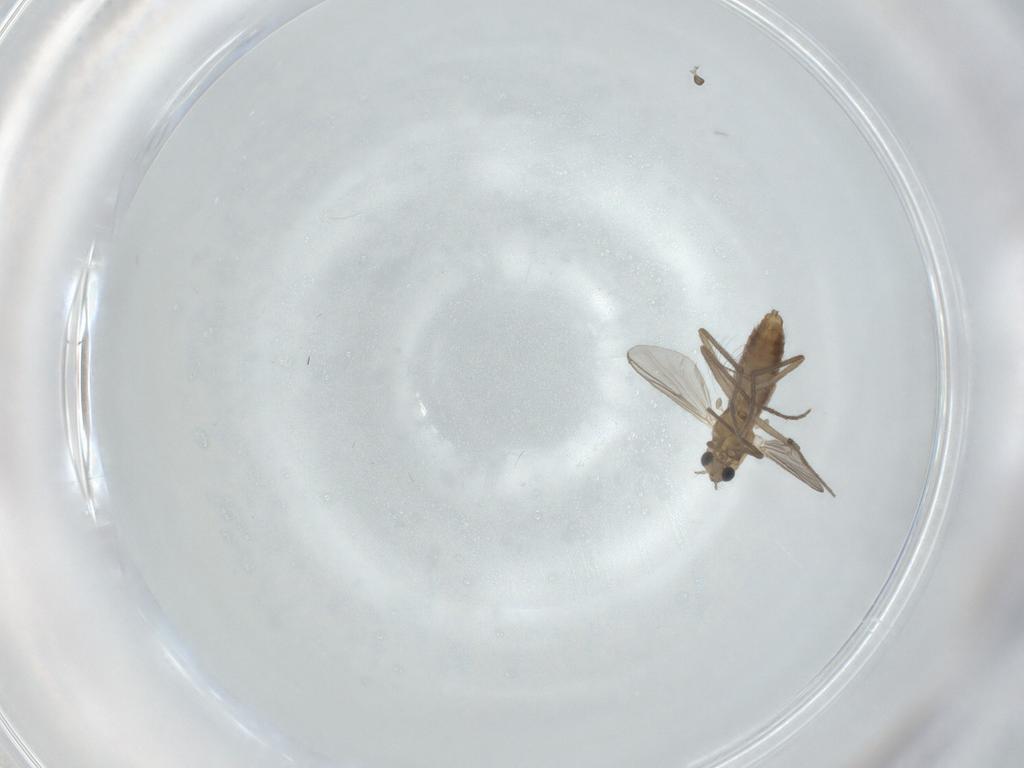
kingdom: Animalia
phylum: Arthropoda
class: Insecta
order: Diptera
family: Chironomidae
